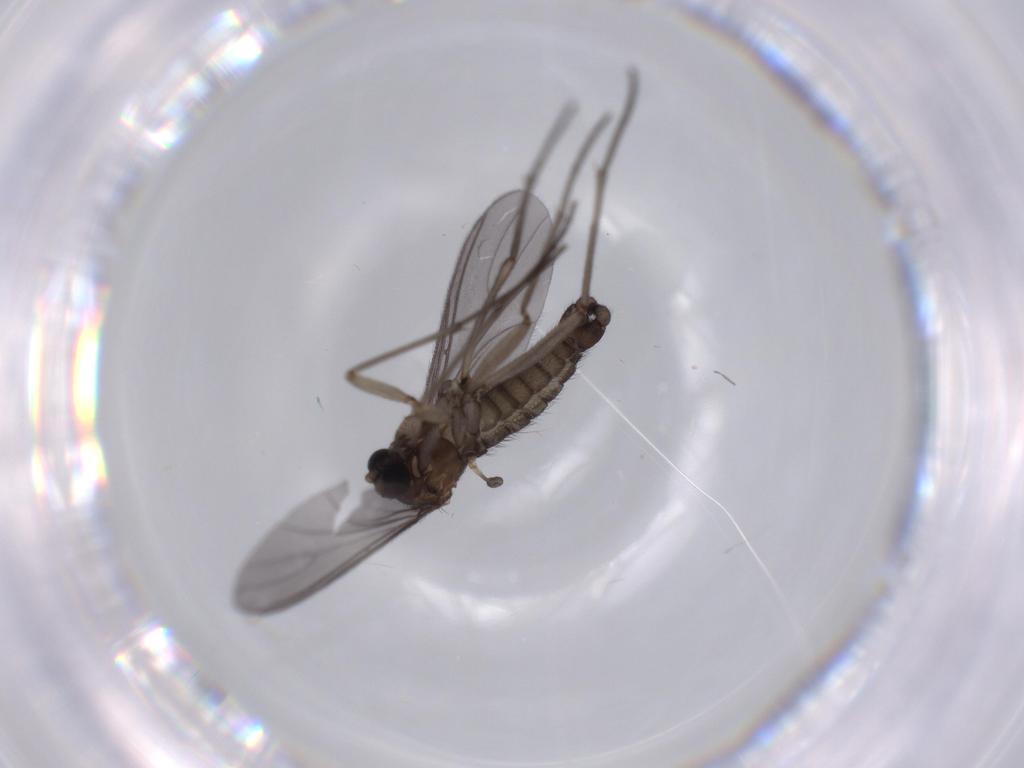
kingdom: Animalia
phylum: Arthropoda
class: Insecta
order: Diptera
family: Sciaridae
